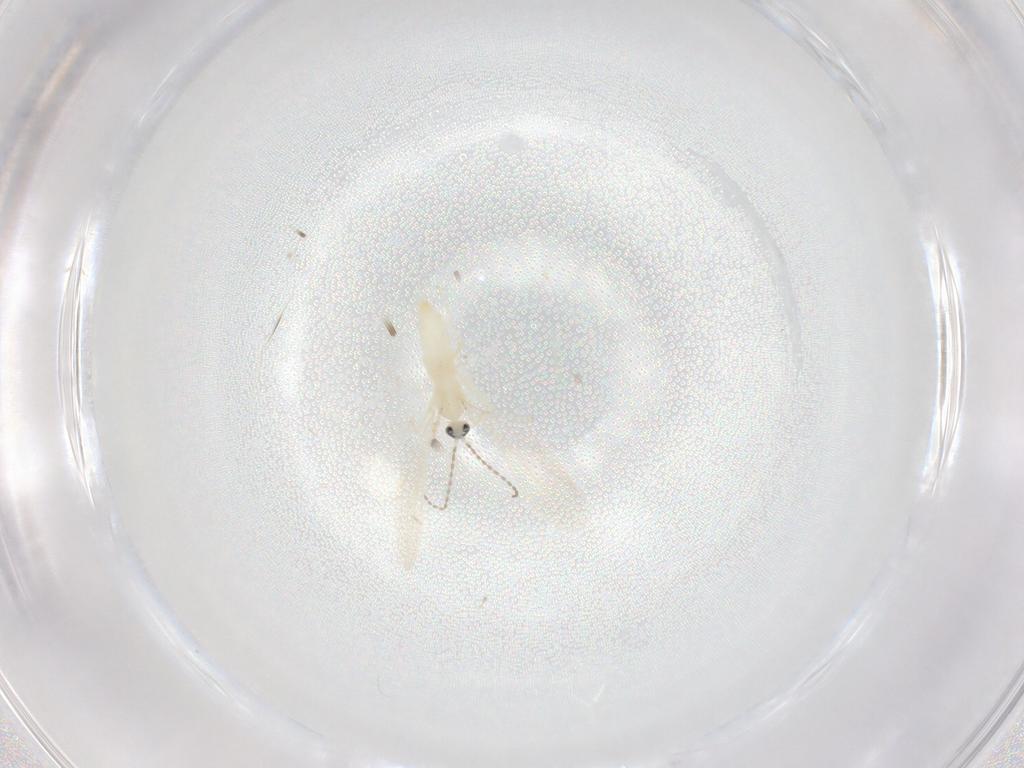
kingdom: Animalia
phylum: Arthropoda
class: Insecta
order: Diptera
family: Cecidomyiidae
